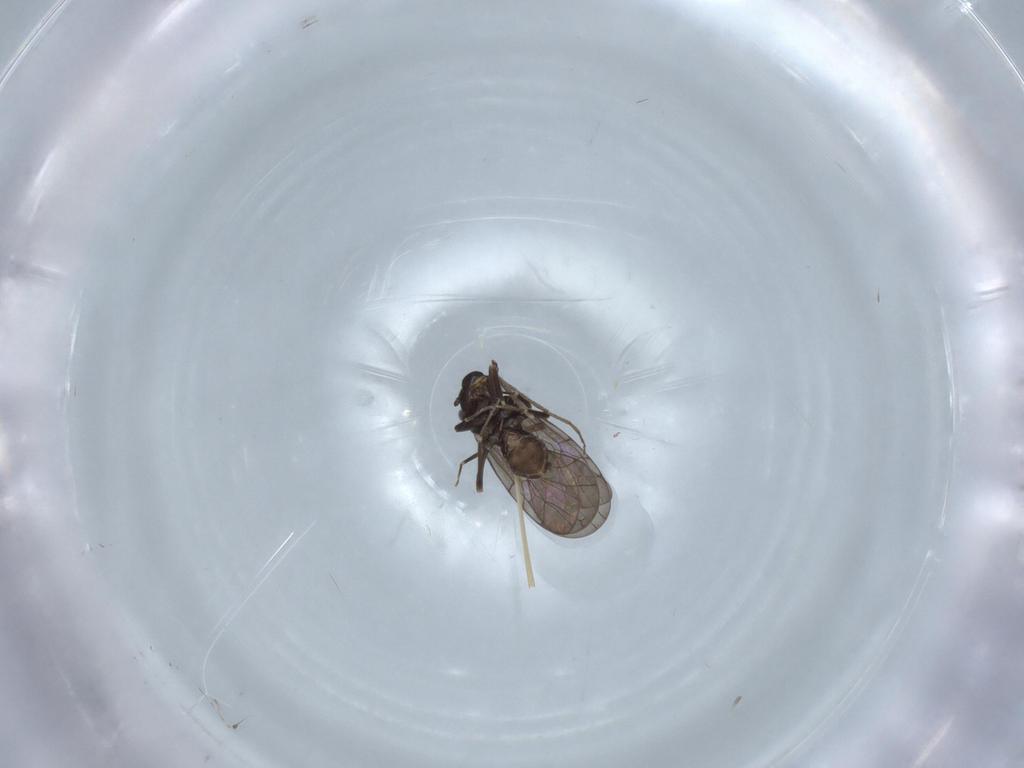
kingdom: Animalia
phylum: Arthropoda
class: Insecta
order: Psocodea
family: Lepidopsocidae
